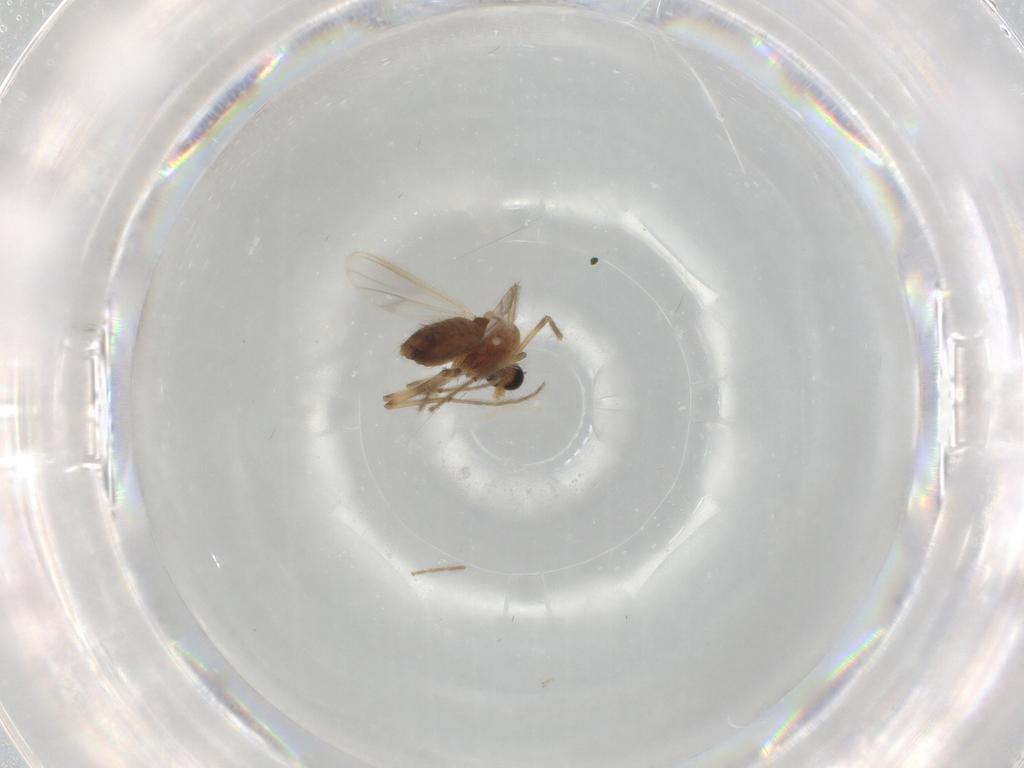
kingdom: Animalia
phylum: Arthropoda
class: Insecta
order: Diptera
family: Chironomidae
